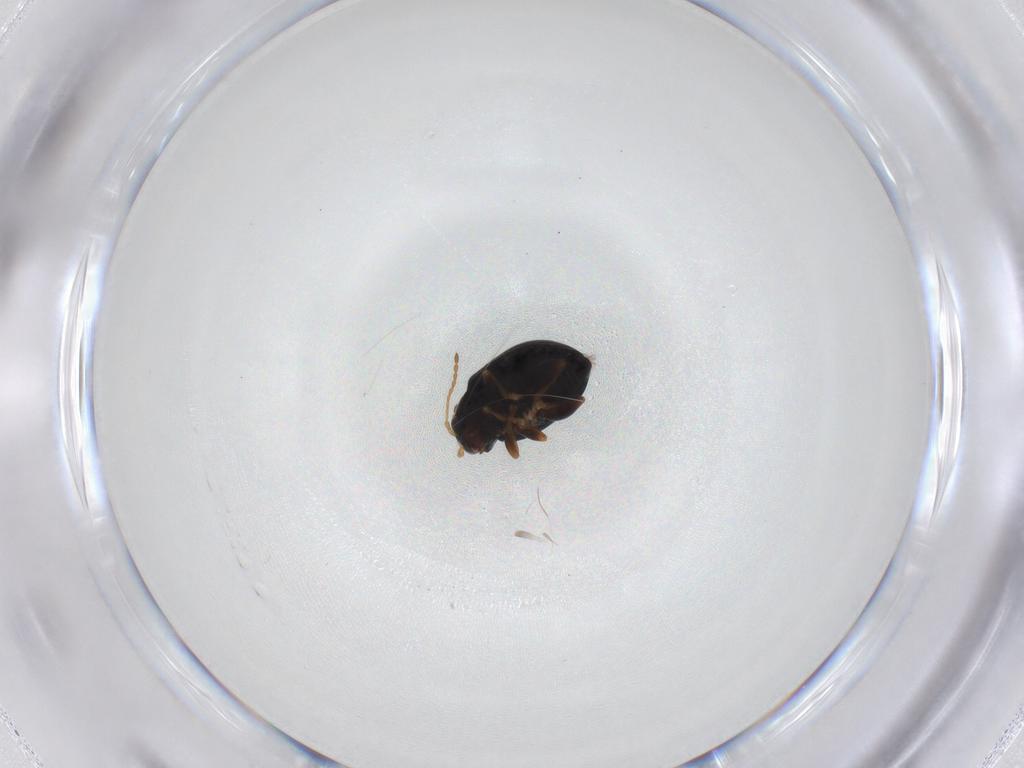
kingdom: Animalia
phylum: Arthropoda
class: Insecta
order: Coleoptera
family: Chrysomelidae
